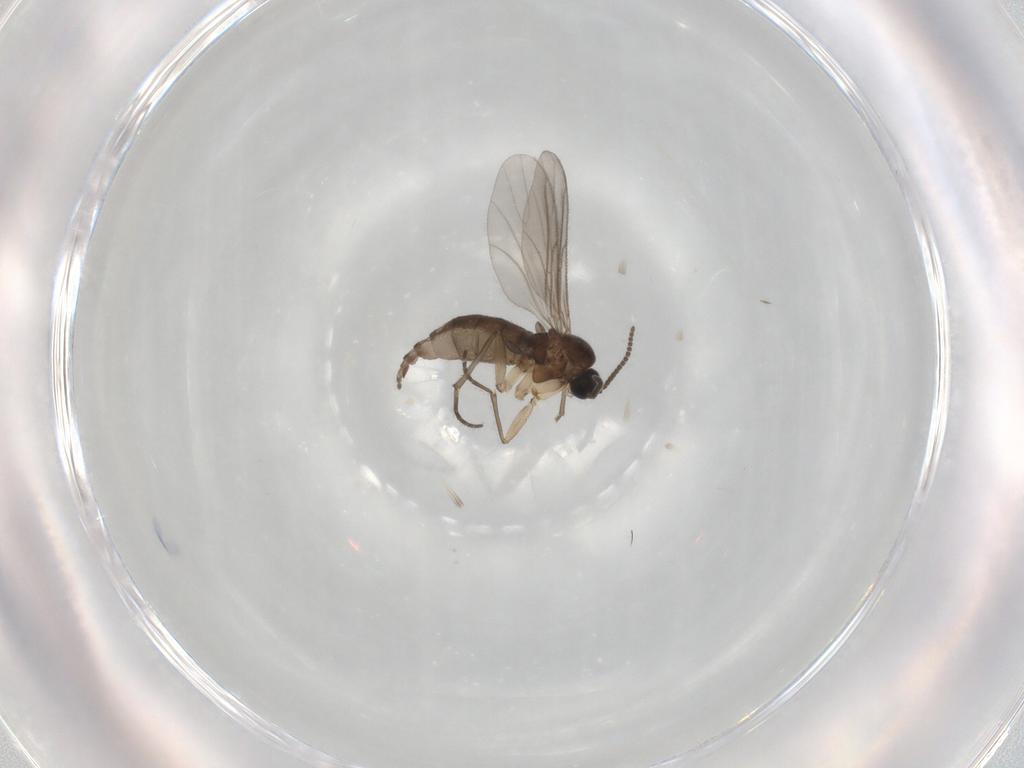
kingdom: Animalia
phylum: Arthropoda
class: Insecta
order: Diptera
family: Sciaridae
